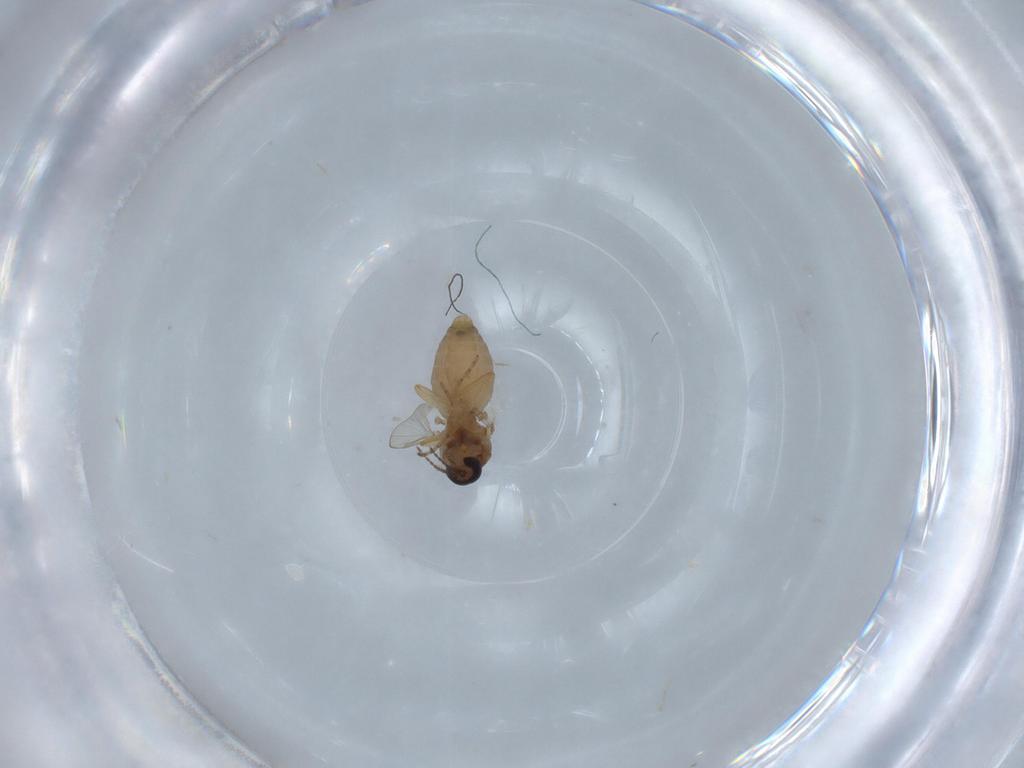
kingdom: Animalia
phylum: Arthropoda
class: Insecta
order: Diptera
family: Ceratopogonidae
